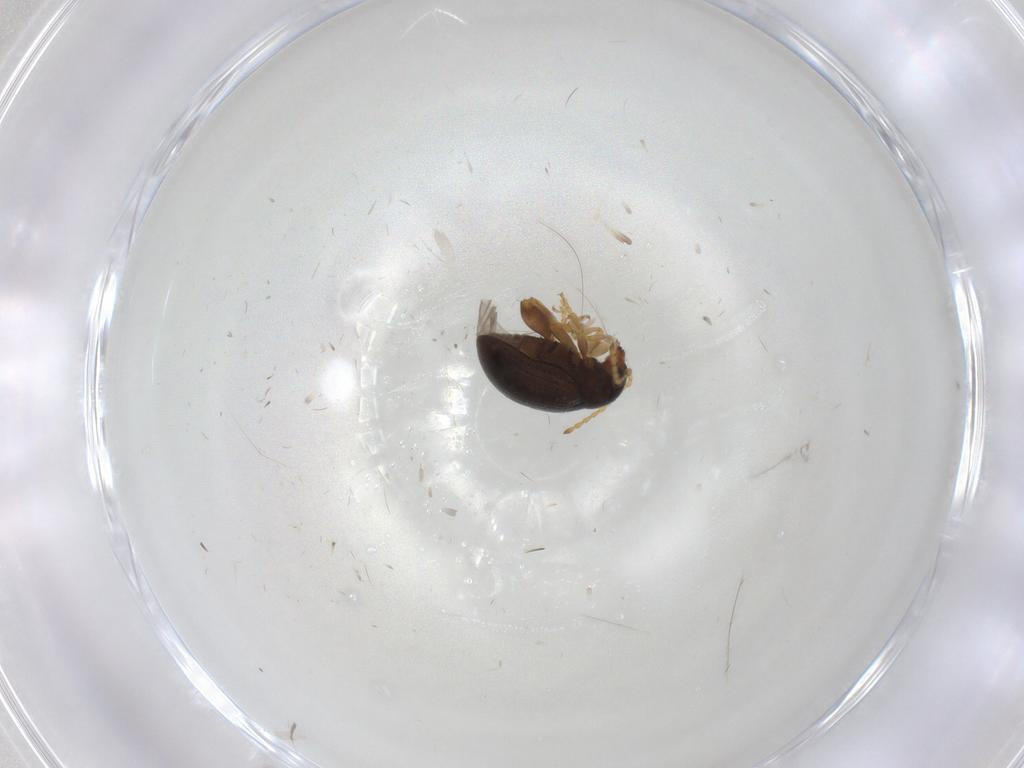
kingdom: Animalia
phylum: Arthropoda
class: Insecta
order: Coleoptera
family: Chrysomelidae
